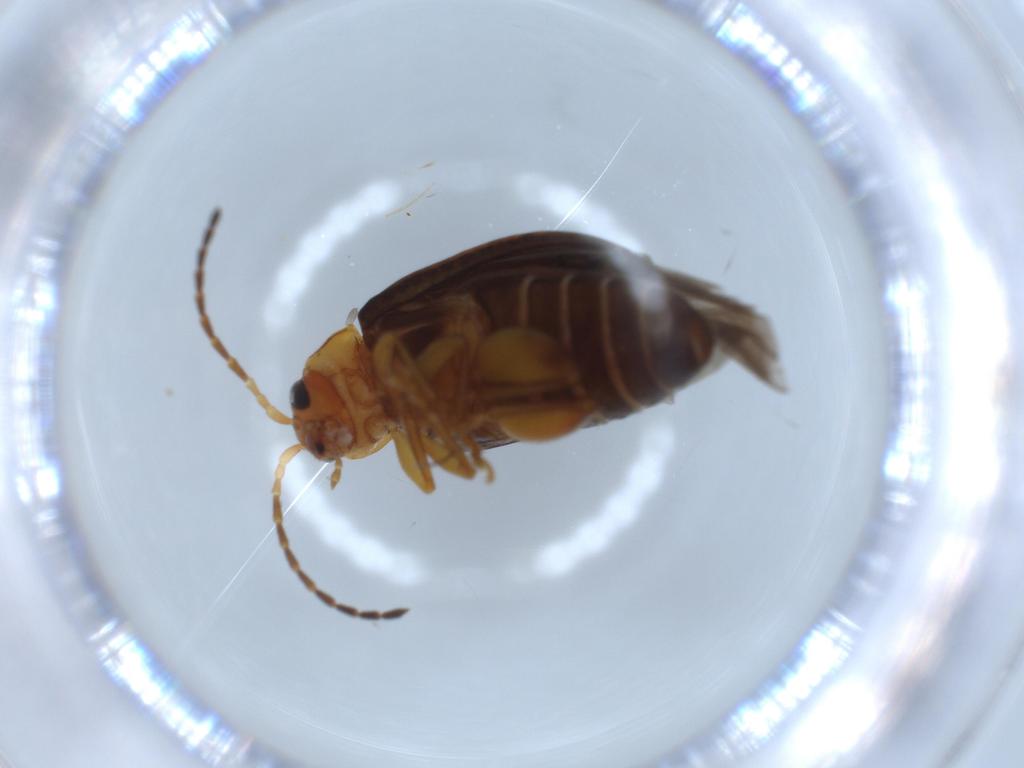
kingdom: Animalia
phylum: Arthropoda
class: Insecta
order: Coleoptera
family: Chrysomelidae
